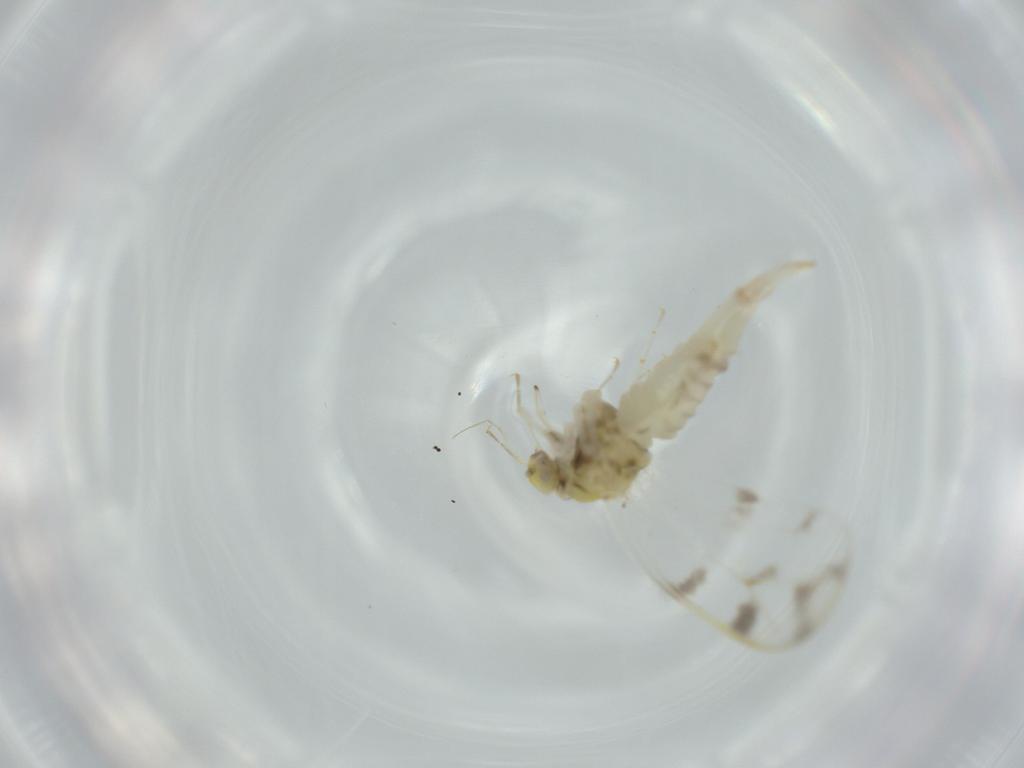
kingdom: Animalia
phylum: Arthropoda
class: Insecta
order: Hemiptera
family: Aleyrodidae
